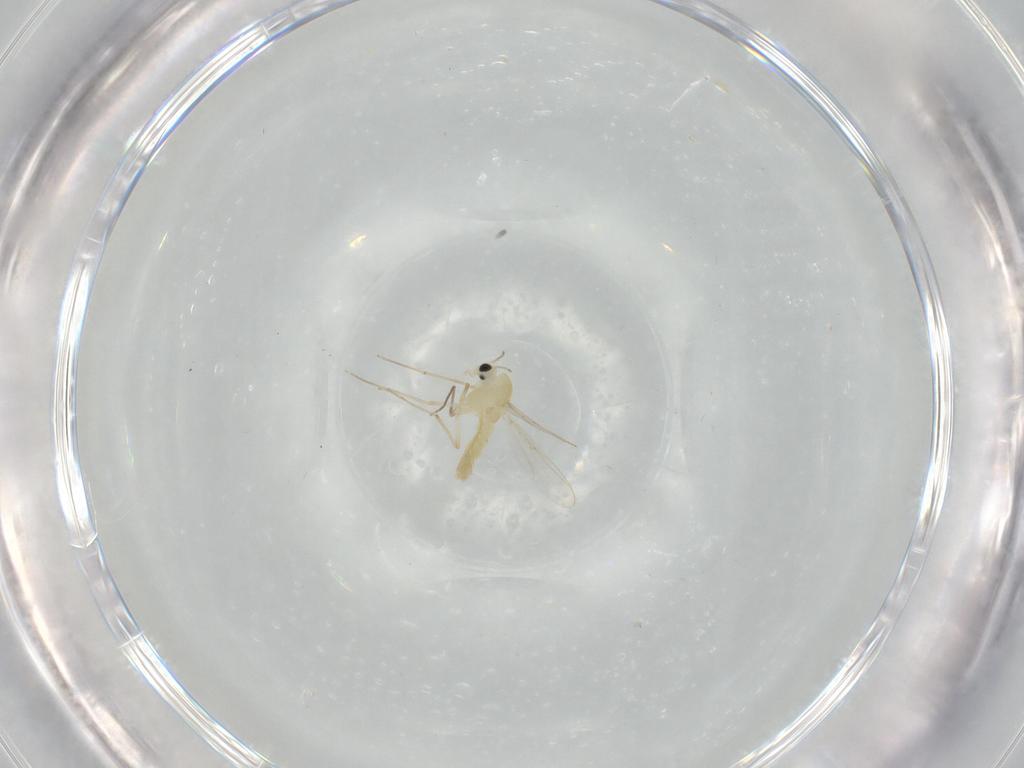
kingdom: Animalia
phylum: Arthropoda
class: Insecta
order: Diptera
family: Chironomidae
